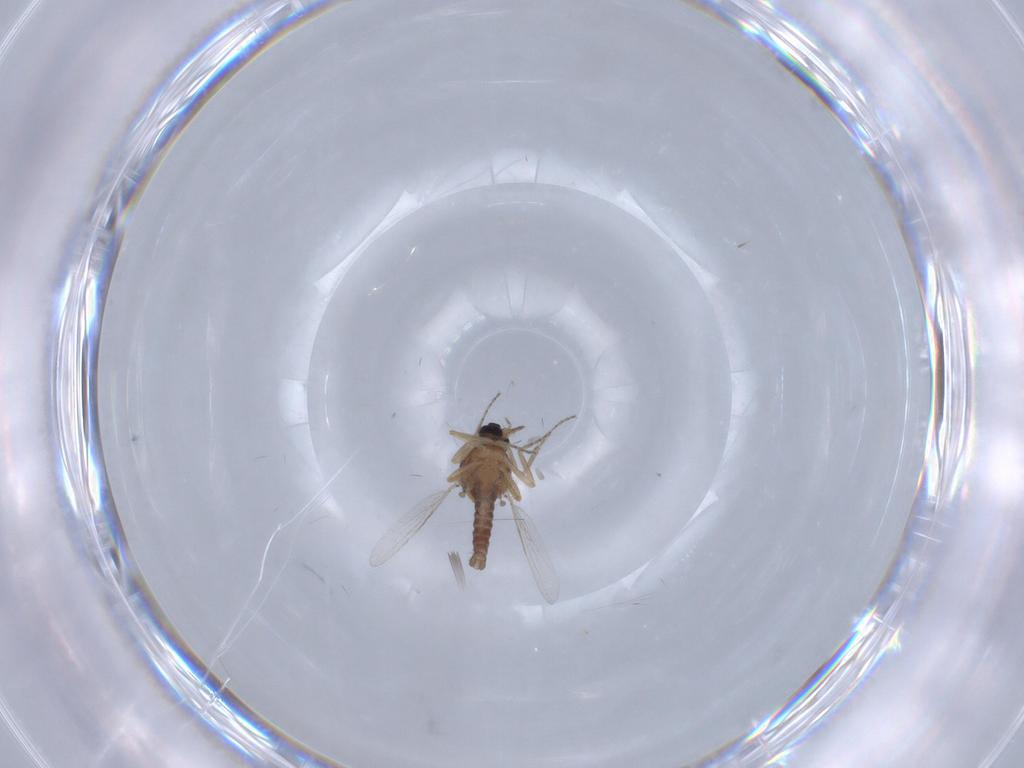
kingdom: Animalia
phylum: Arthropoda
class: Insecta
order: Diptera
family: Ceratopogonidae
